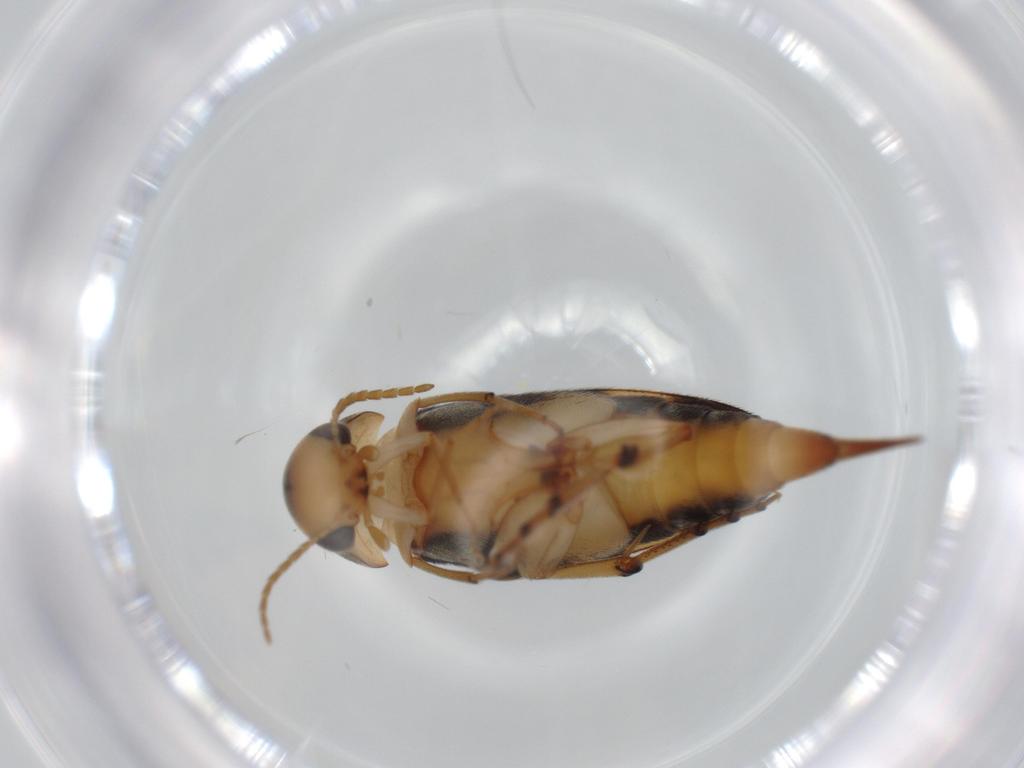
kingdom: Animalia
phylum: Arthropoda
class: Insecta
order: Coleoptera
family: Mordellidae
